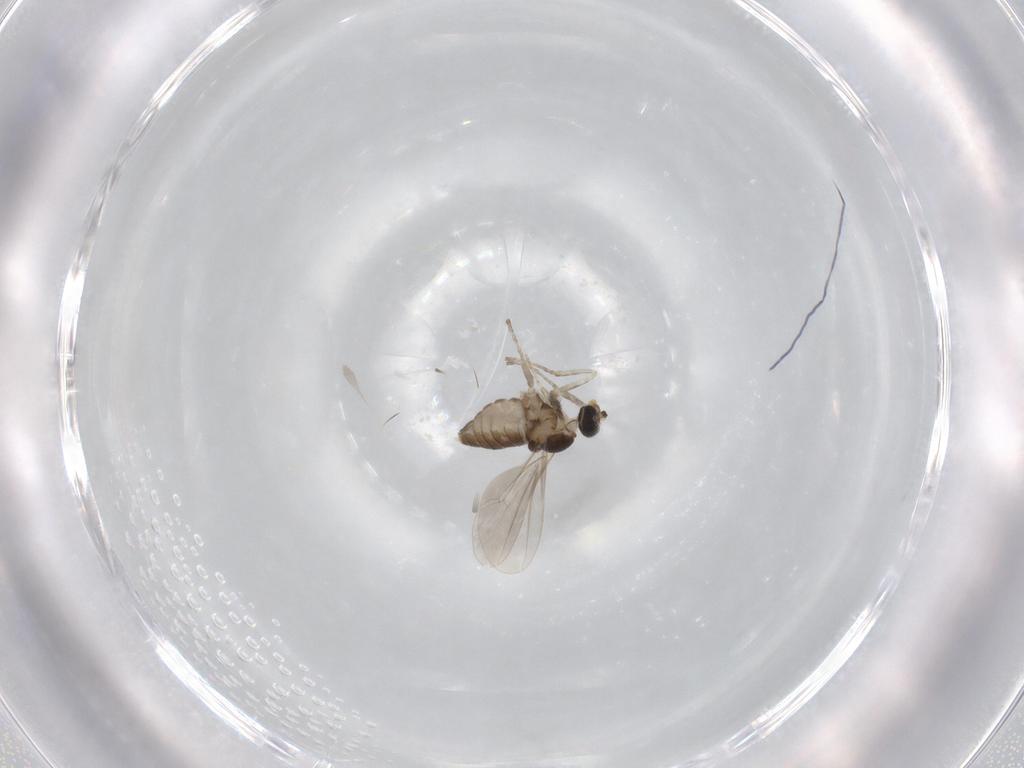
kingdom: Animalia
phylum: Arthropoda
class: Insecta
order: Diptera
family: Cecidomyiidae
